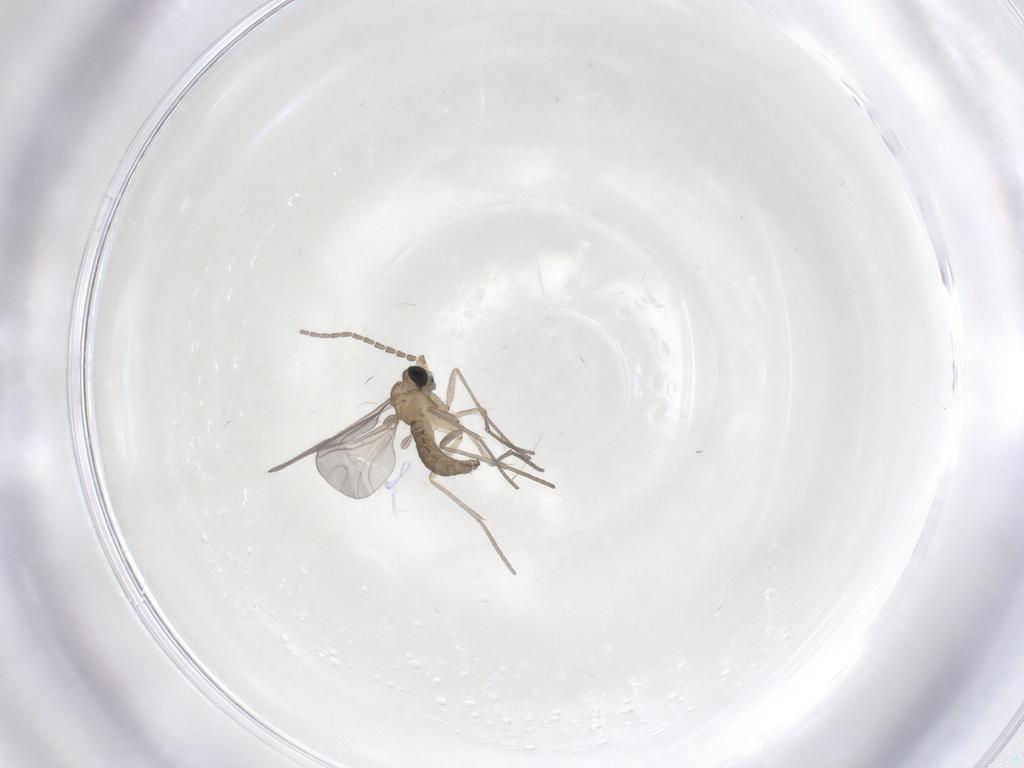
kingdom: Animalia
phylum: Arthropoda
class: Insecta
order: Diptera
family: Sciaridae
